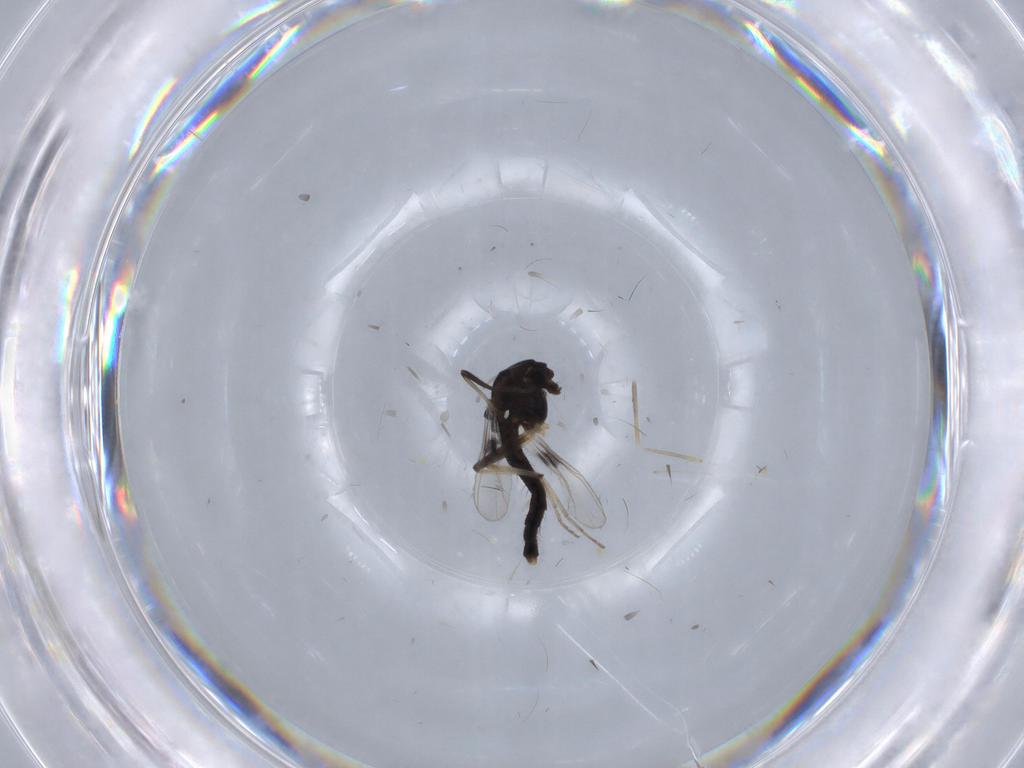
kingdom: Animalia
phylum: Arthropoda
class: Insecta
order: Diptera
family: Chironomidae
